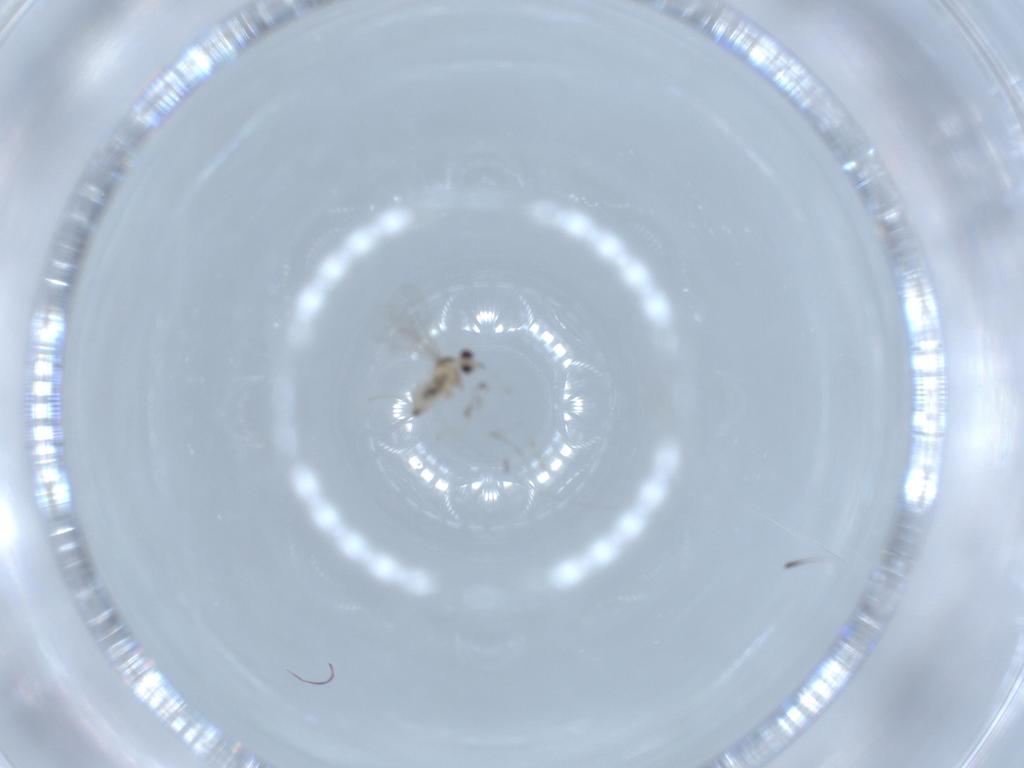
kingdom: Animalia
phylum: Arthropoda
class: Insecta
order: Diptera
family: Cecidomyiidae
